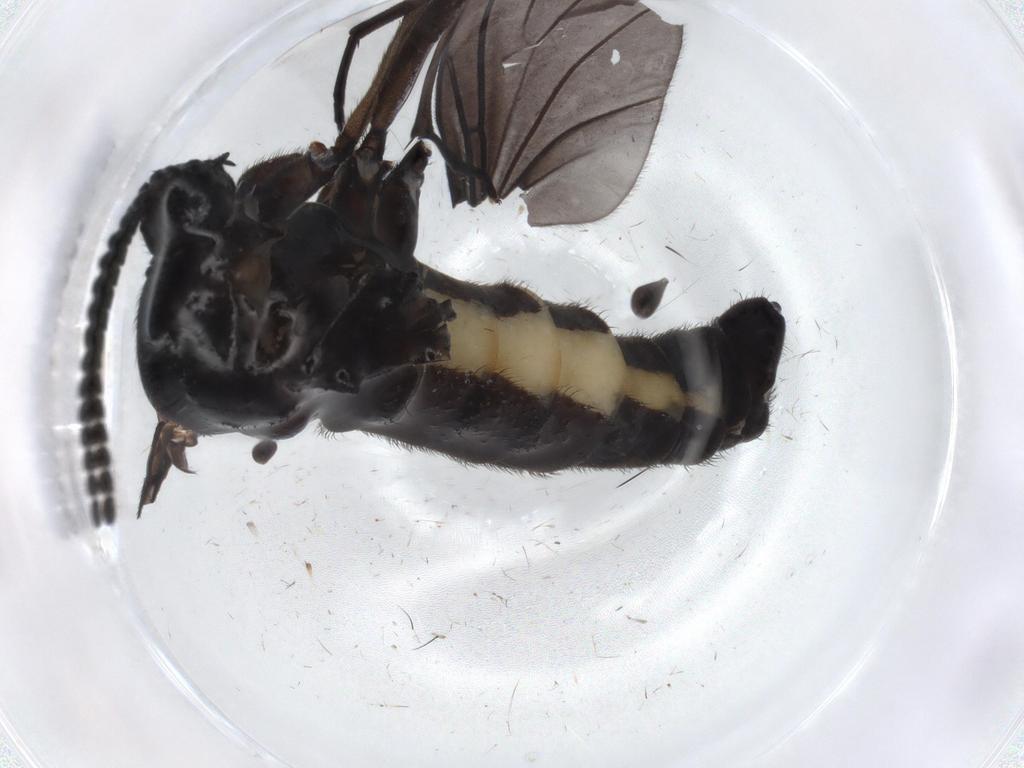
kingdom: Animalia
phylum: Arthropoda
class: Insecta
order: Diptera
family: Sciaridae
